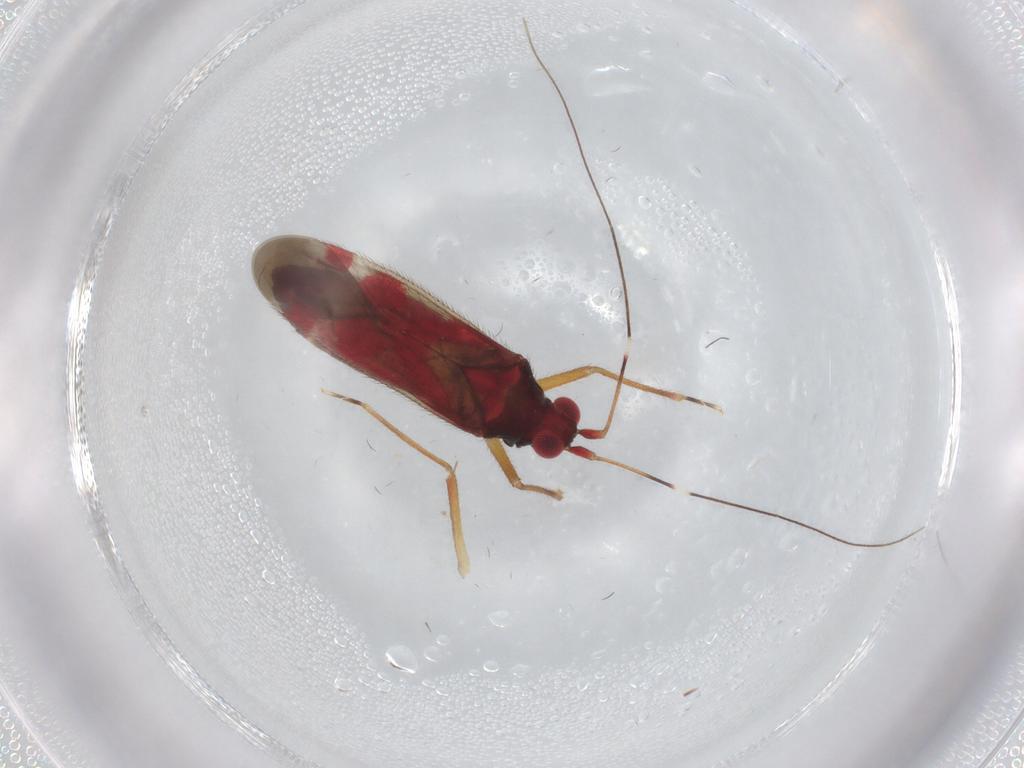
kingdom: Animalia
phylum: Arthropoda
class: Insecta
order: Hemiptera
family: Miridae
